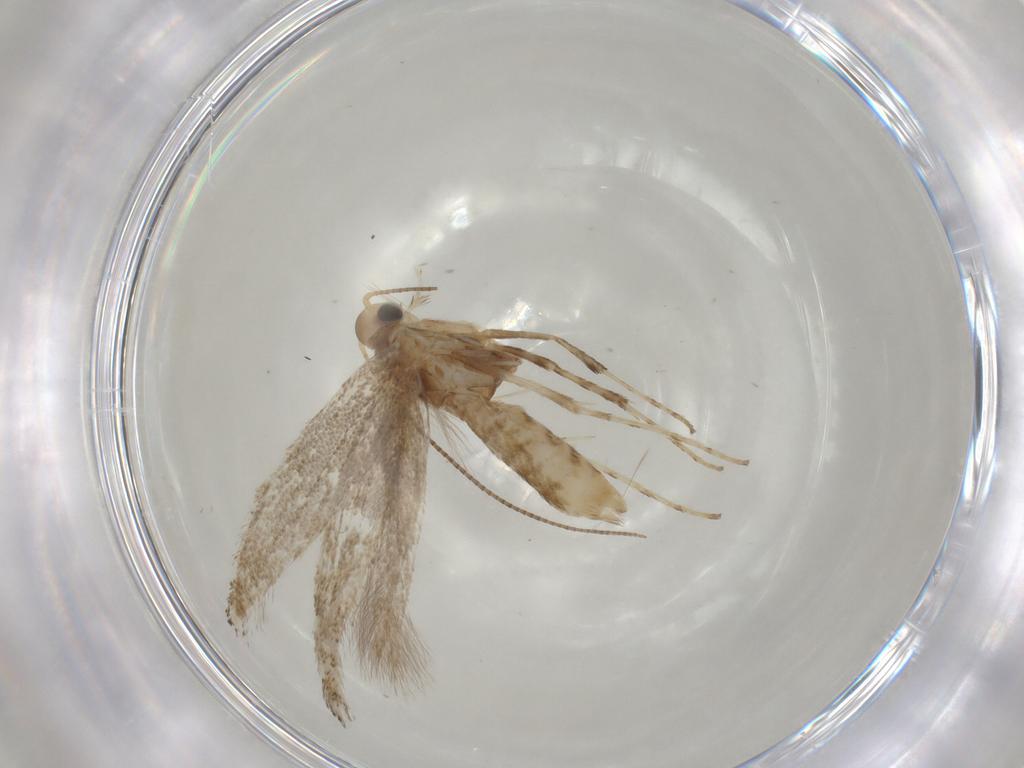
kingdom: Animalia
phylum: Arthropoda
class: Insecta
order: Lepidoptera
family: Gracillariidae
